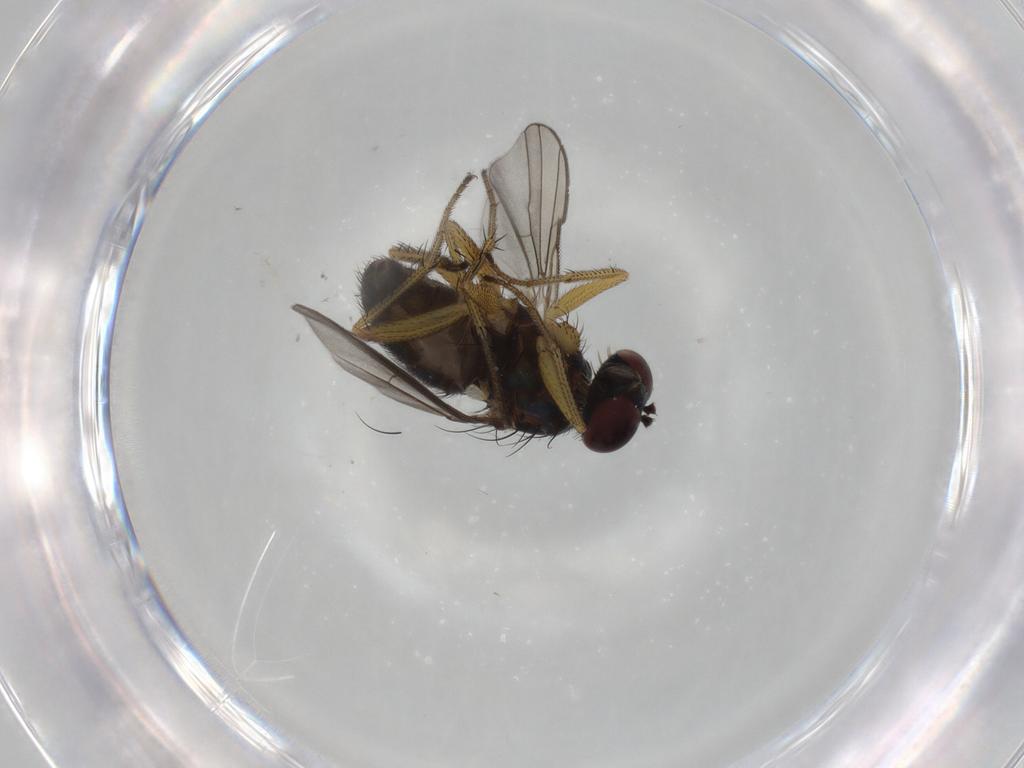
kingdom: Animalia
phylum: Arthropoda
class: Insecta
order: Diptera
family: Dolichopodidae
